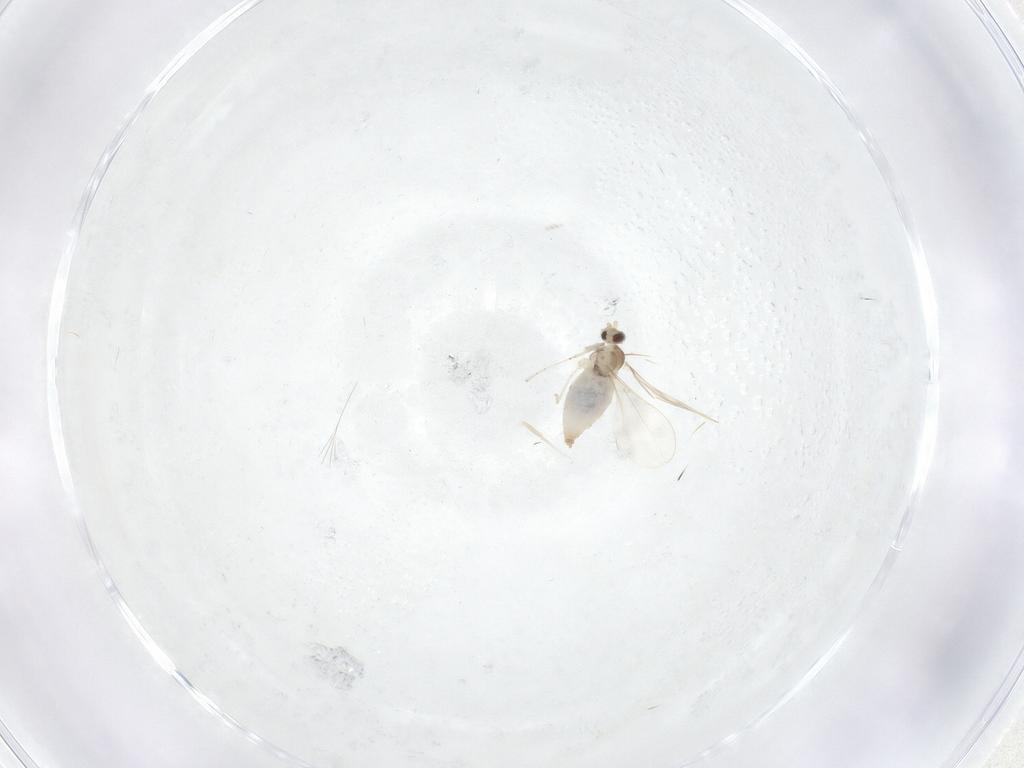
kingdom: Animalia
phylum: Arthropoda
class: Insecta
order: Diptera
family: Cecidomyiidae
